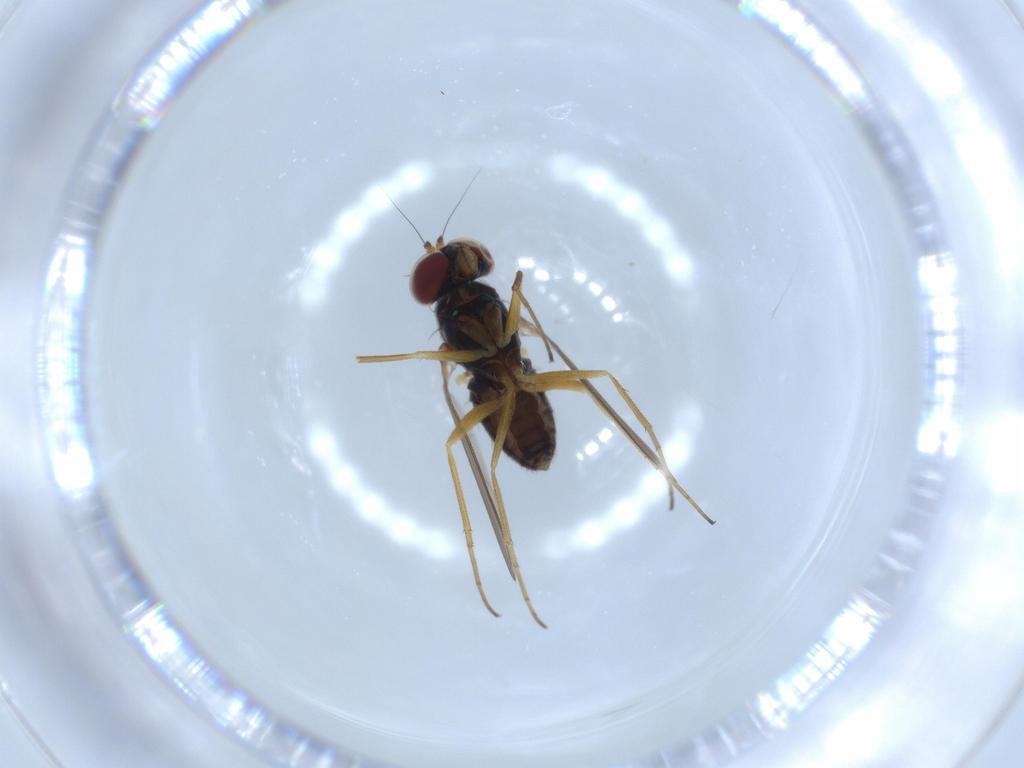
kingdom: Animalia
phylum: Arthropoda
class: Insecta
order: Diptera
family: Dolichopodidae
